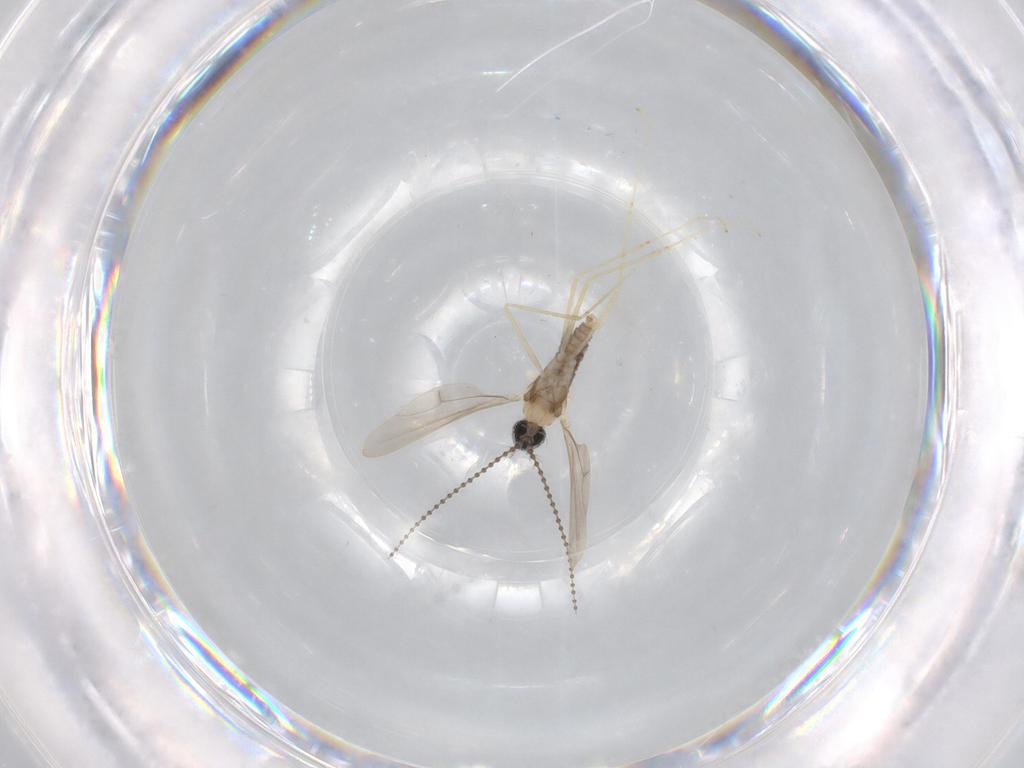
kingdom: Animalia
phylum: Arthropoda
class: Insecta
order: Diptera
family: Cecidomyiidae
